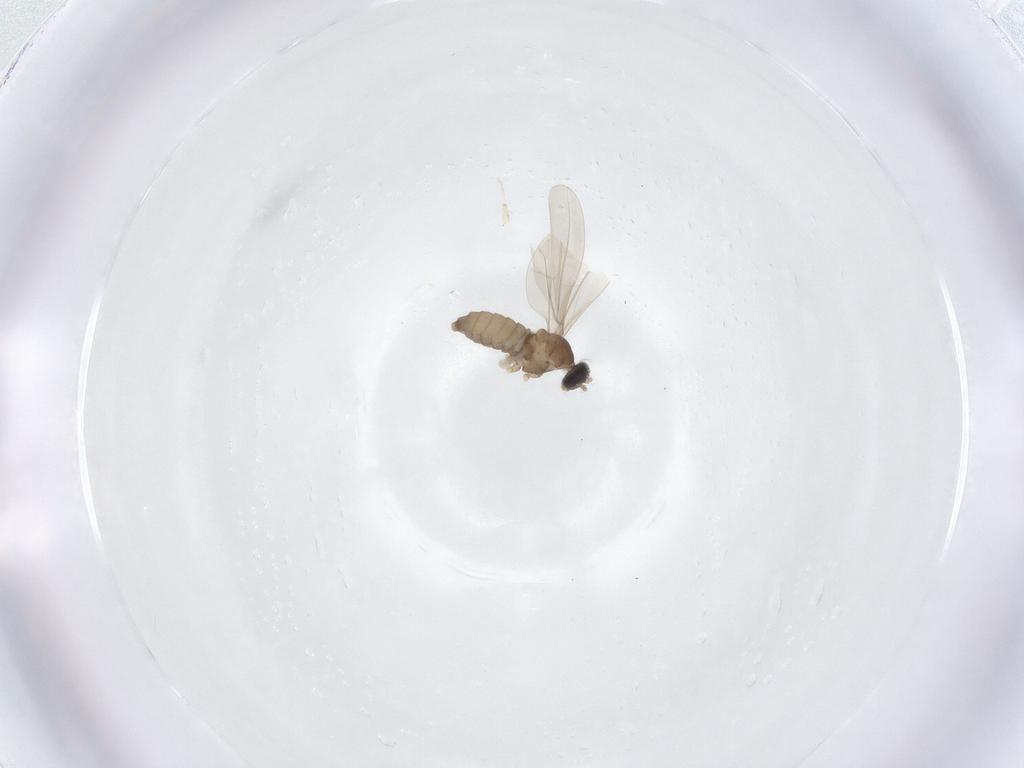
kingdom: Animalia
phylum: Arthropoda
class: Insecta
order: Diptera
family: Cecidomyiidae
